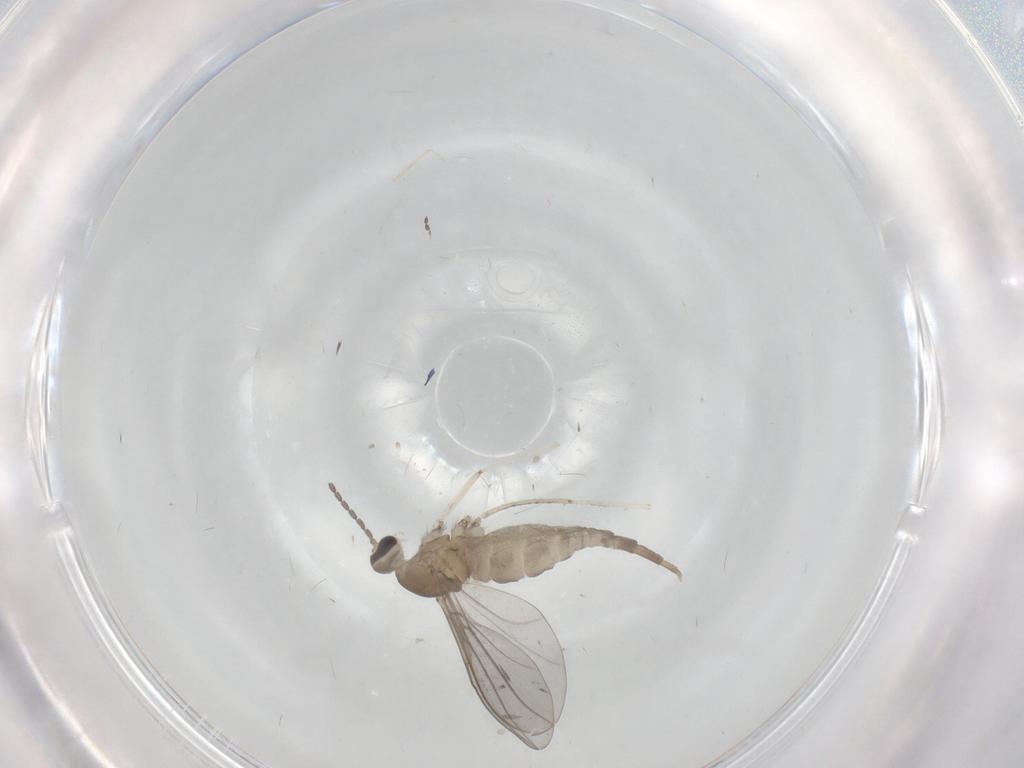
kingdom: Animalia
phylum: Arthropoda
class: Insecta
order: Diptera
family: Cecidomyiidae
